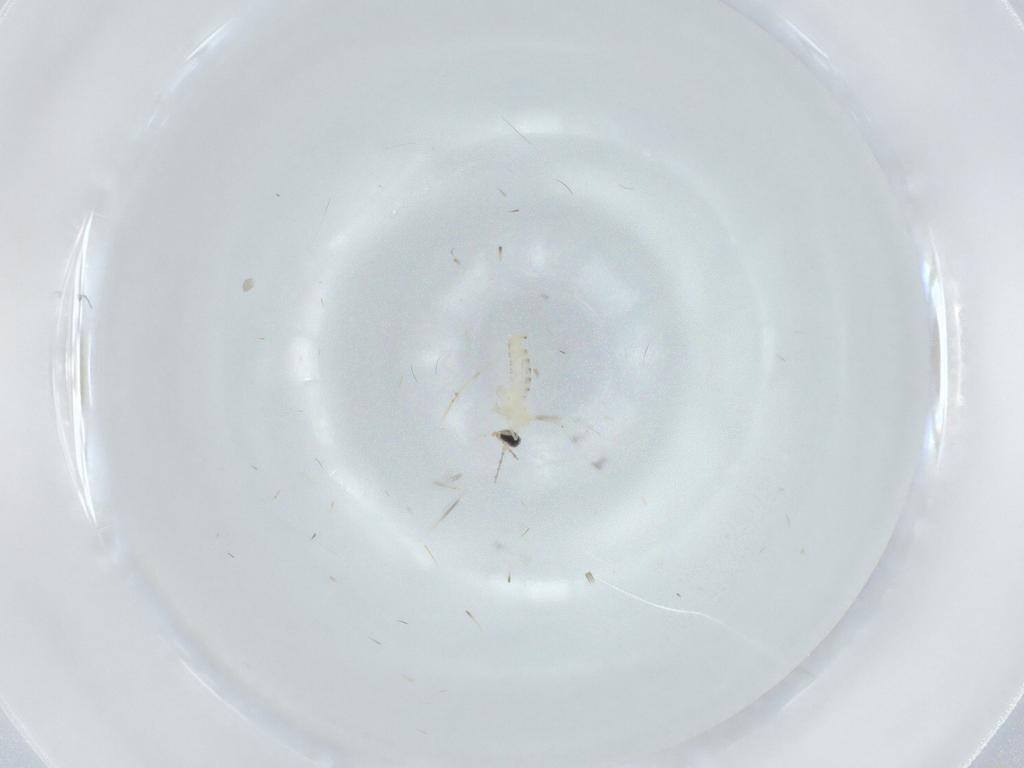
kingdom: Animalia
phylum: Arthropoda
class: Insecta
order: Diptera
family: Cecidomyiidae
